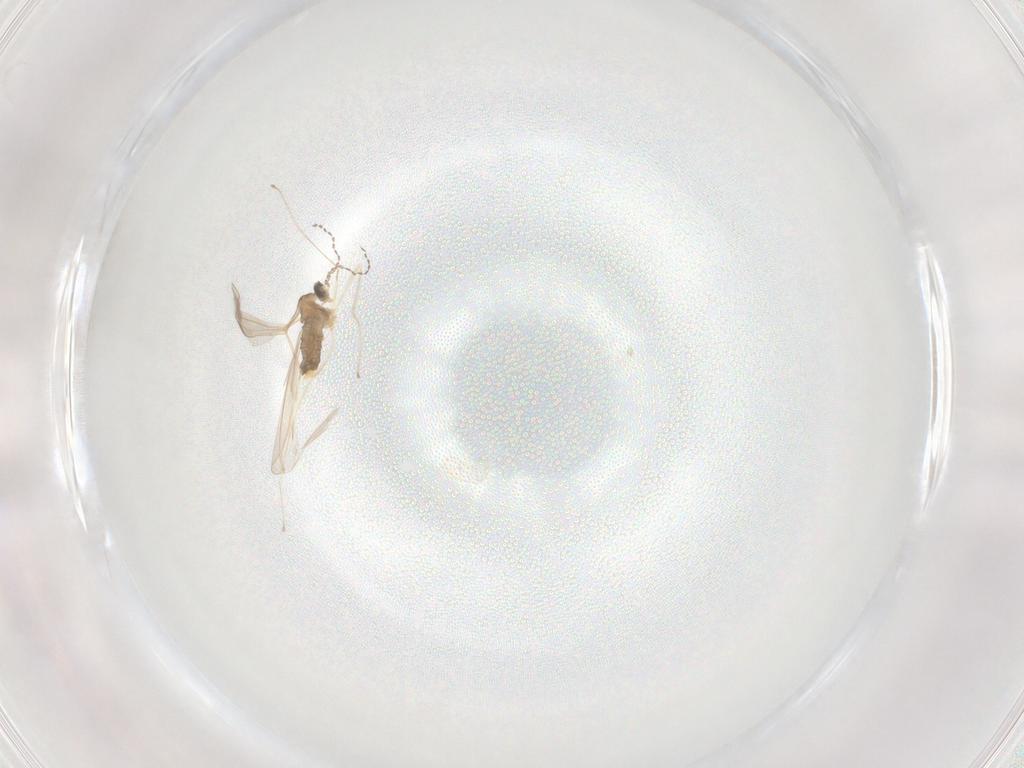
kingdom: Animalia
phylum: Arthropoda
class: Insecta
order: Diptera
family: Cecidomyiidae
